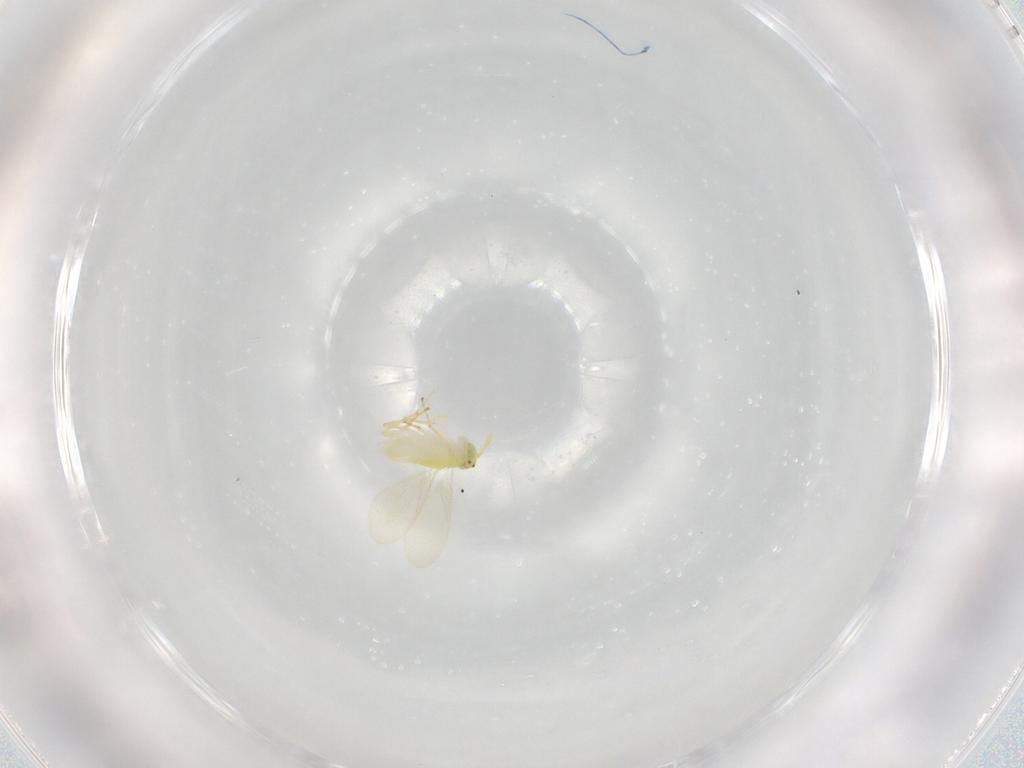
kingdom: Animalia
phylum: Arthropoda
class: Insecta
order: Hymenoptera
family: Aphelinidae
